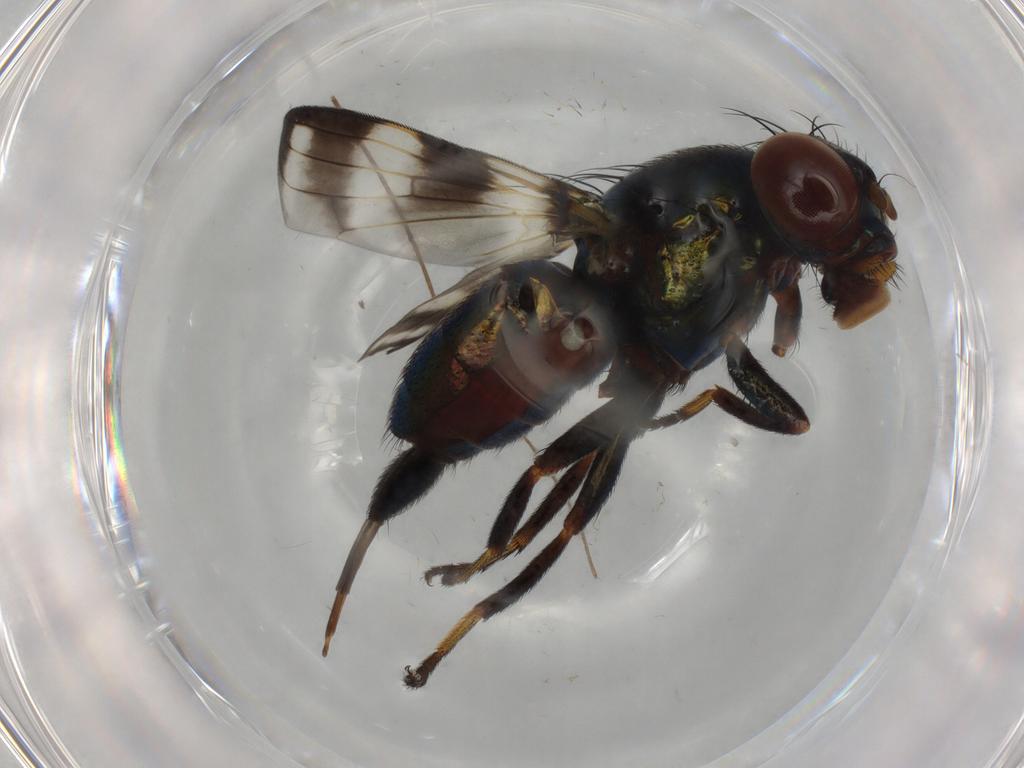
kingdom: Animalia
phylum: Arthropoda
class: Insecta
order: Diptera
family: Ulidiidae
